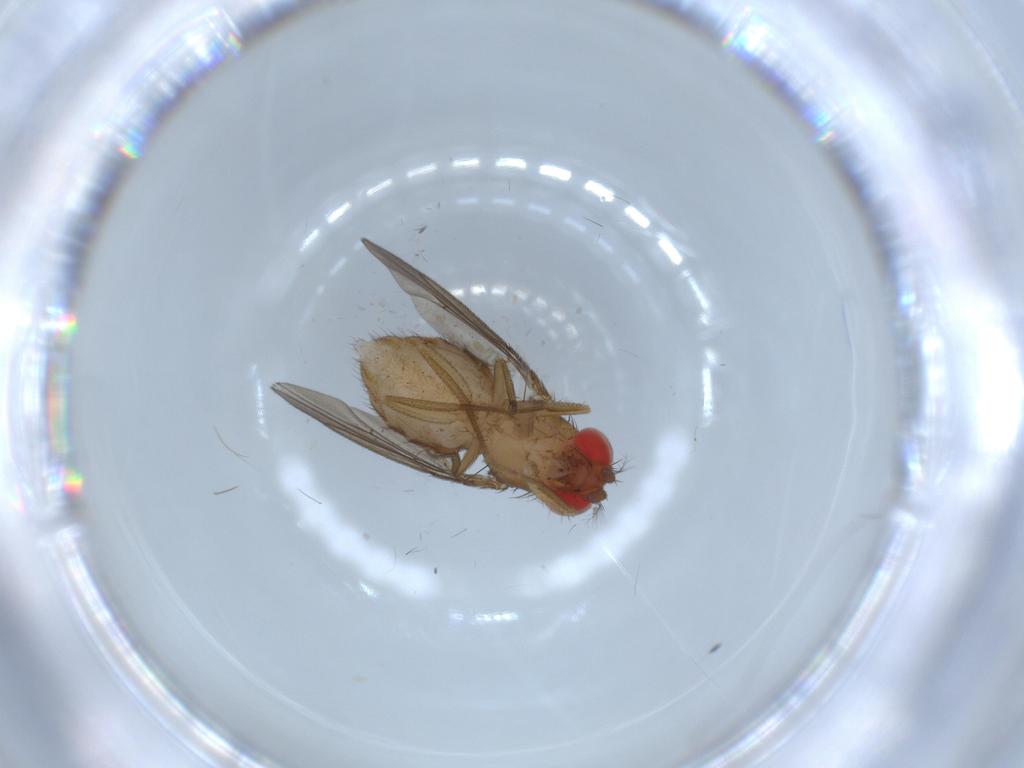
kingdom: Animalia
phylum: Arthropoda
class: Insecta
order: Diptera
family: Drosophilidae
